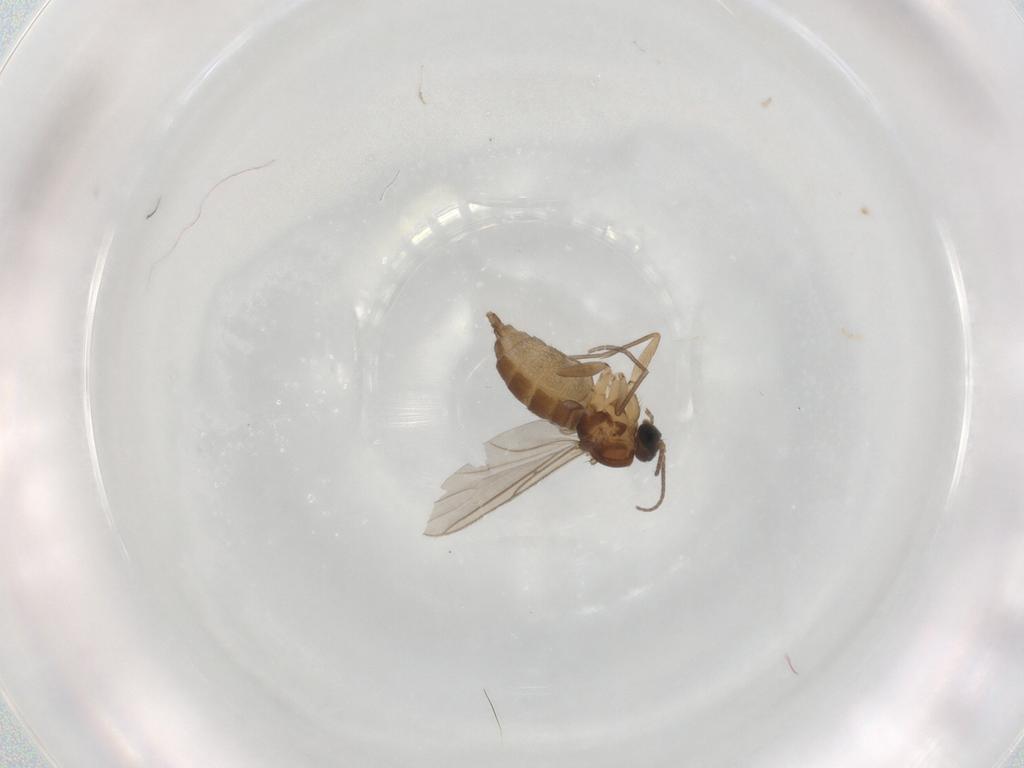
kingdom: Animalia
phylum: Arthropoda
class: Insecta
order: Diptera
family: Sciaridae
